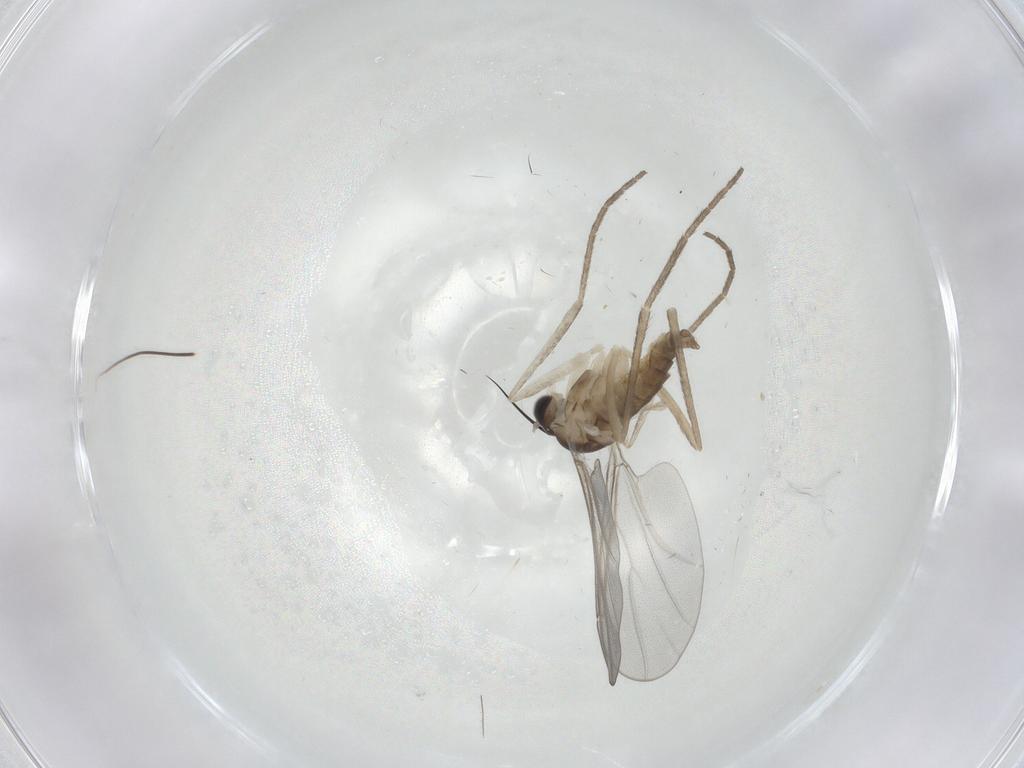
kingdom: Animalia
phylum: Arthropoda
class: Insecta
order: Diptera
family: Cecidomyiidae
